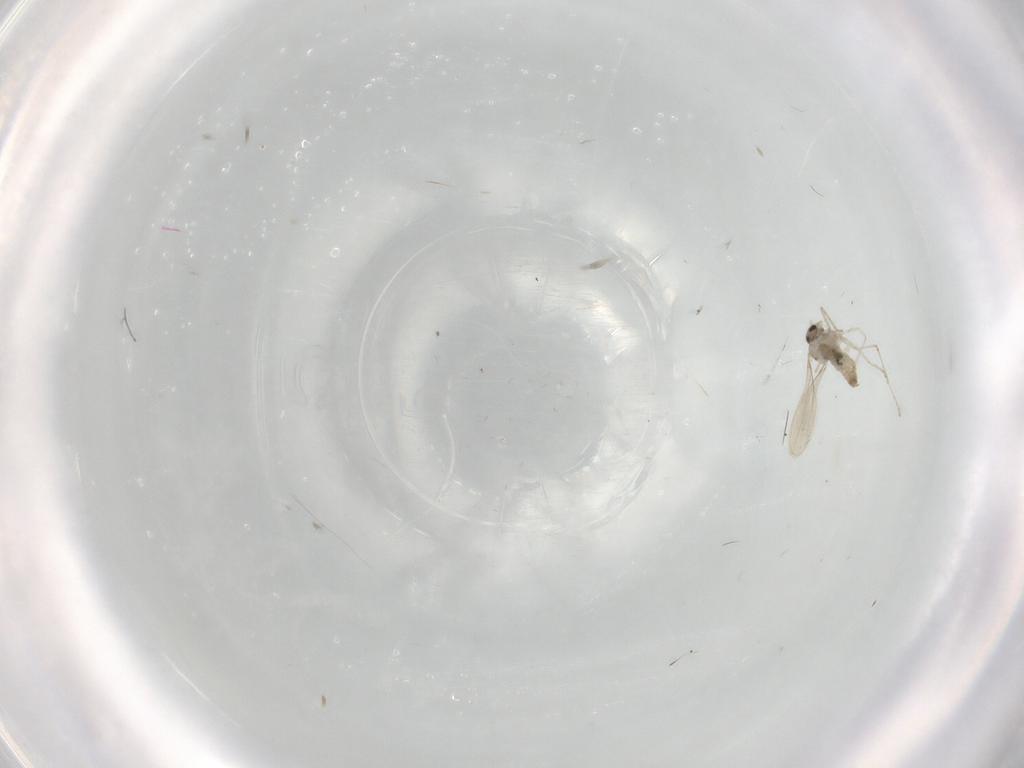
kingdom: Animalia
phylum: Arthropoda
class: Insecta
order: Diptera
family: Cecidomyiidae
